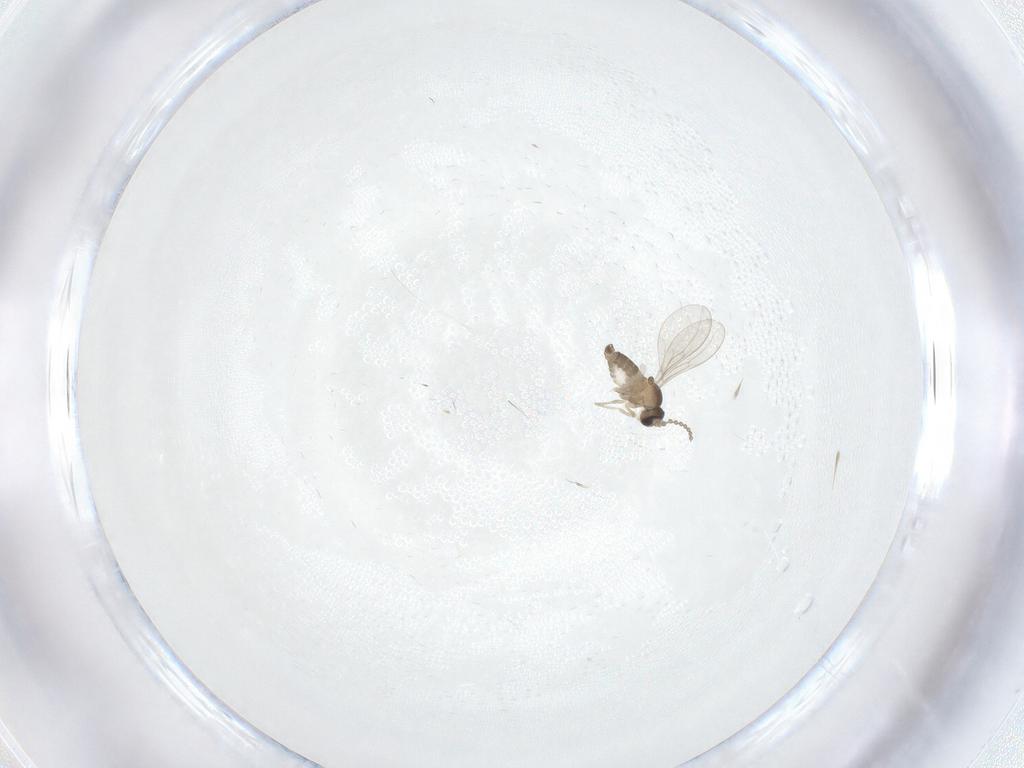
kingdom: Animalia
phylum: Arthropoda
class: Insecta
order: Diptera
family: Cecidomyiidae
